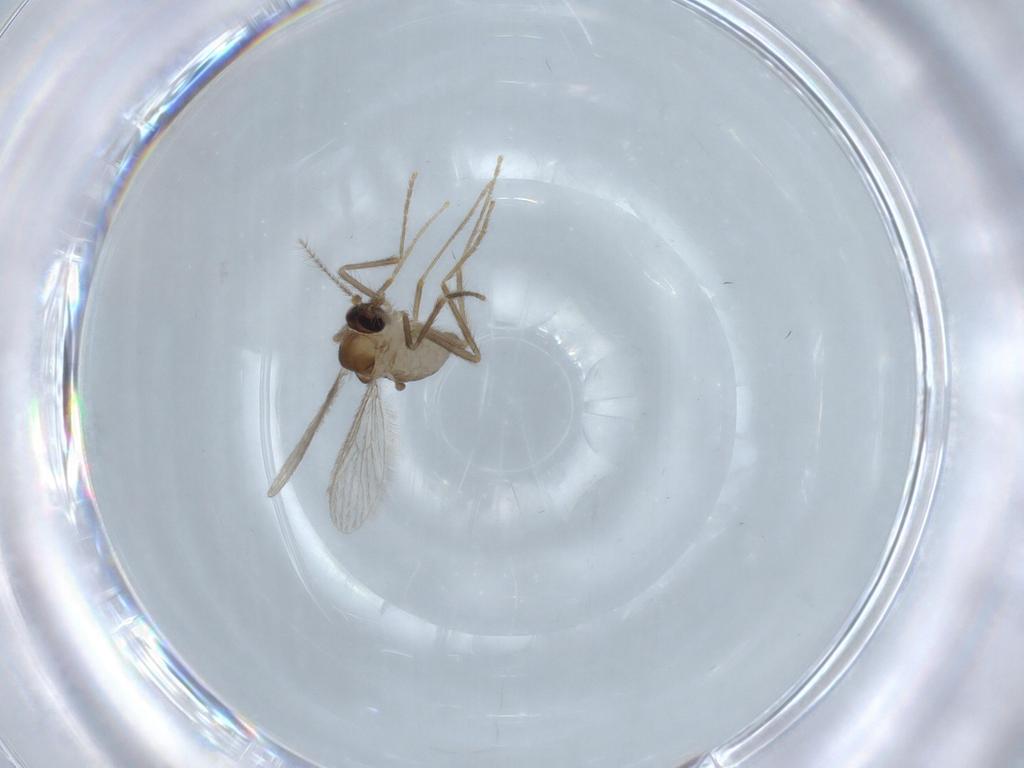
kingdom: Animalia
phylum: Arthropoda
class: Insecta
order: Diptera
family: Corethrellidae
